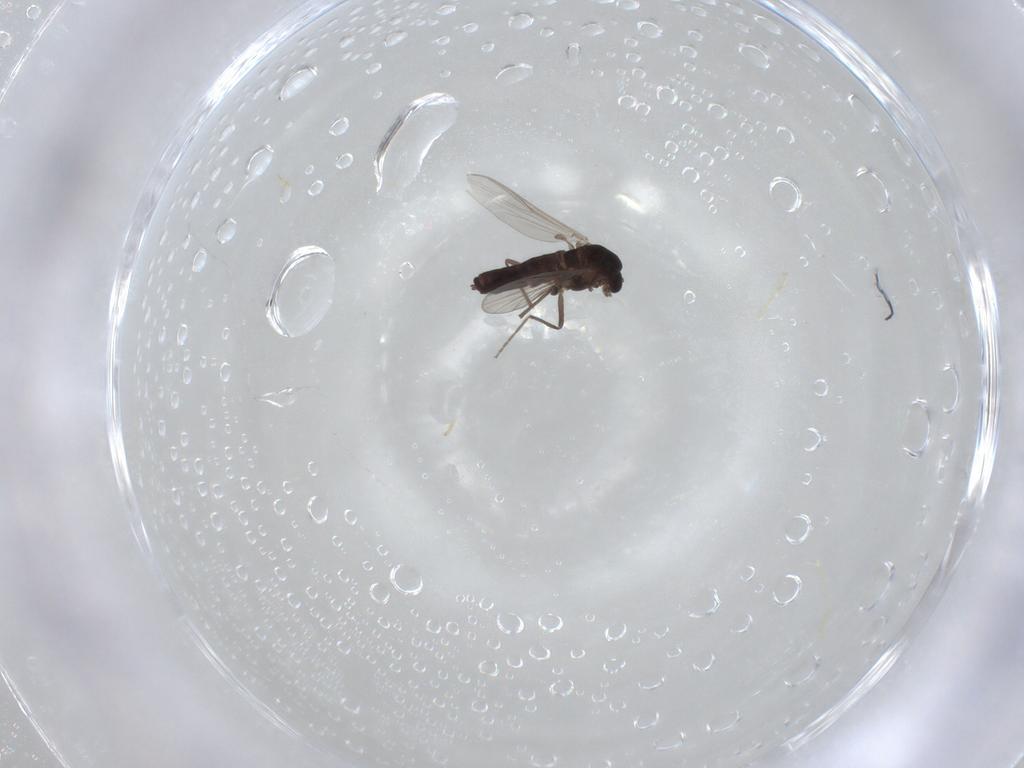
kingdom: Animalia
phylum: Arthropoda
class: Insecta
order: Diptera
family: Chironomidae
